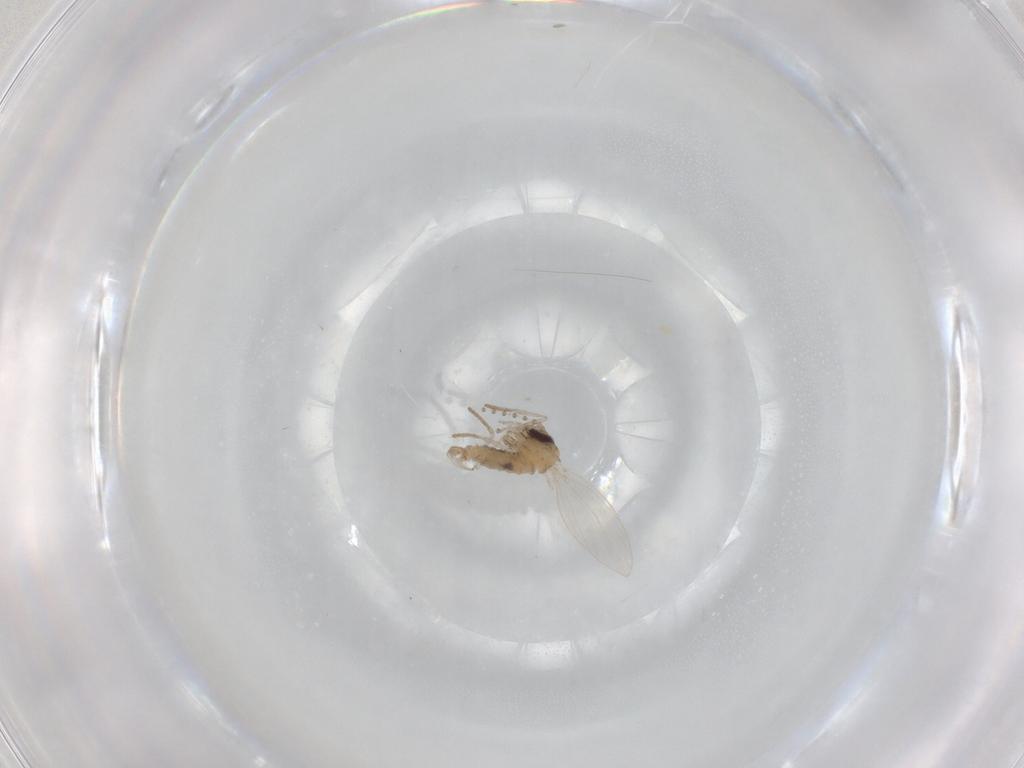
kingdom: Animalia
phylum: Arthropoda
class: Insecta
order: Diptera
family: Cecidomyiidae
